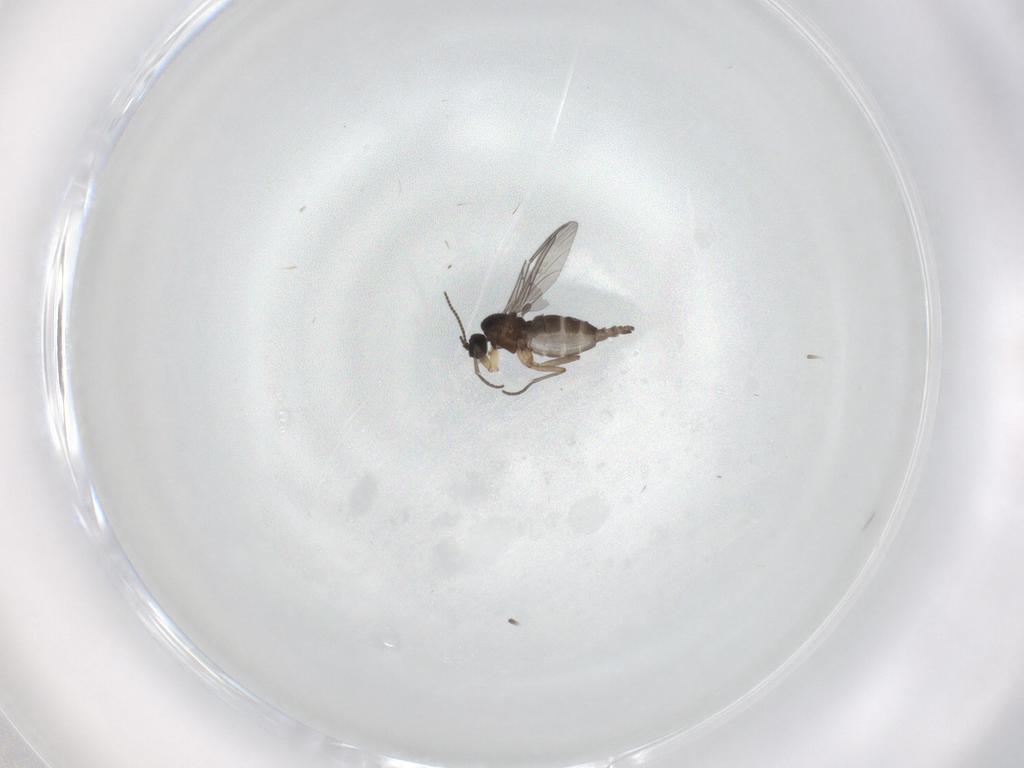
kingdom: Animalia
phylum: Arthropoda
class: Insecta
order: Diptera
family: Sciaridae
